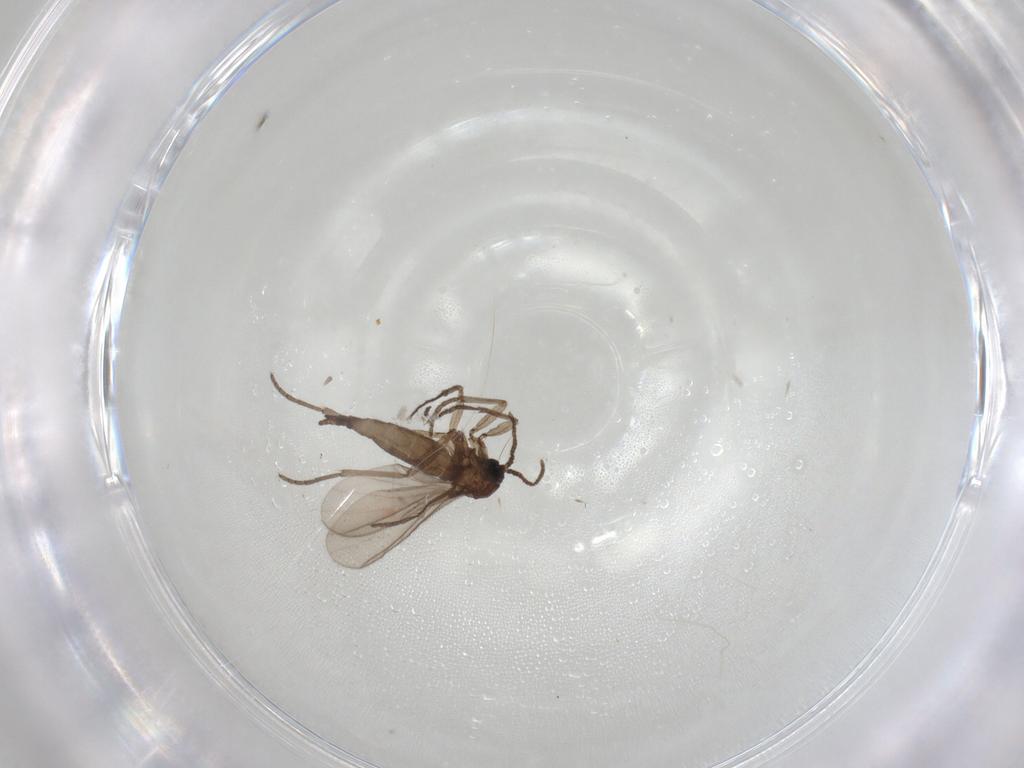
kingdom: Animalia
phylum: Arthropoda
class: Insecta
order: Diptera
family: Sciaridae
